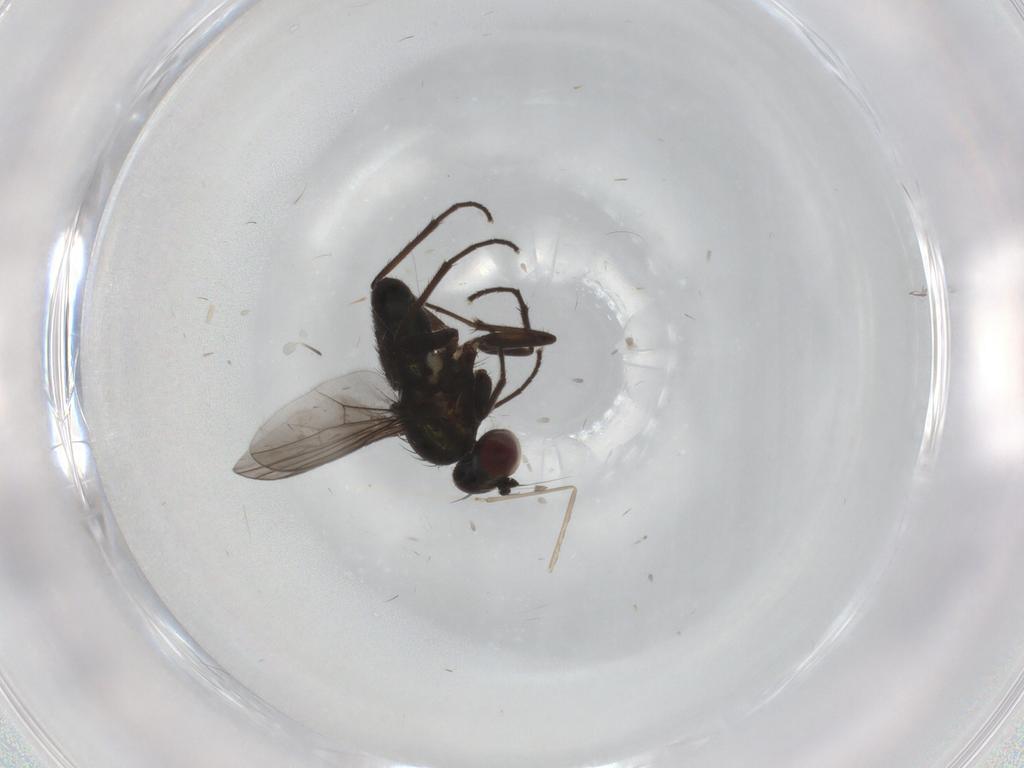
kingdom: Animalia
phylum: Arthropoda
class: Insecta
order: Diptera
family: Dolichopodidae
